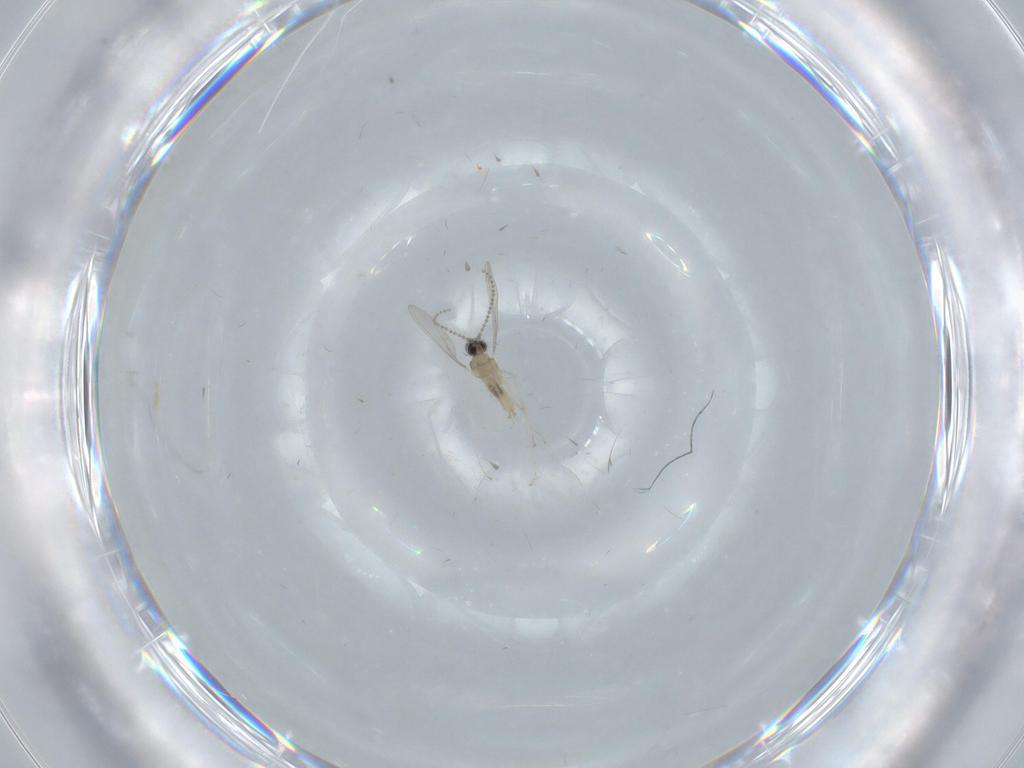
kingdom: Animalia
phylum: Arthropoda
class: Insecta
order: Diptera
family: Cecidomyiidae
